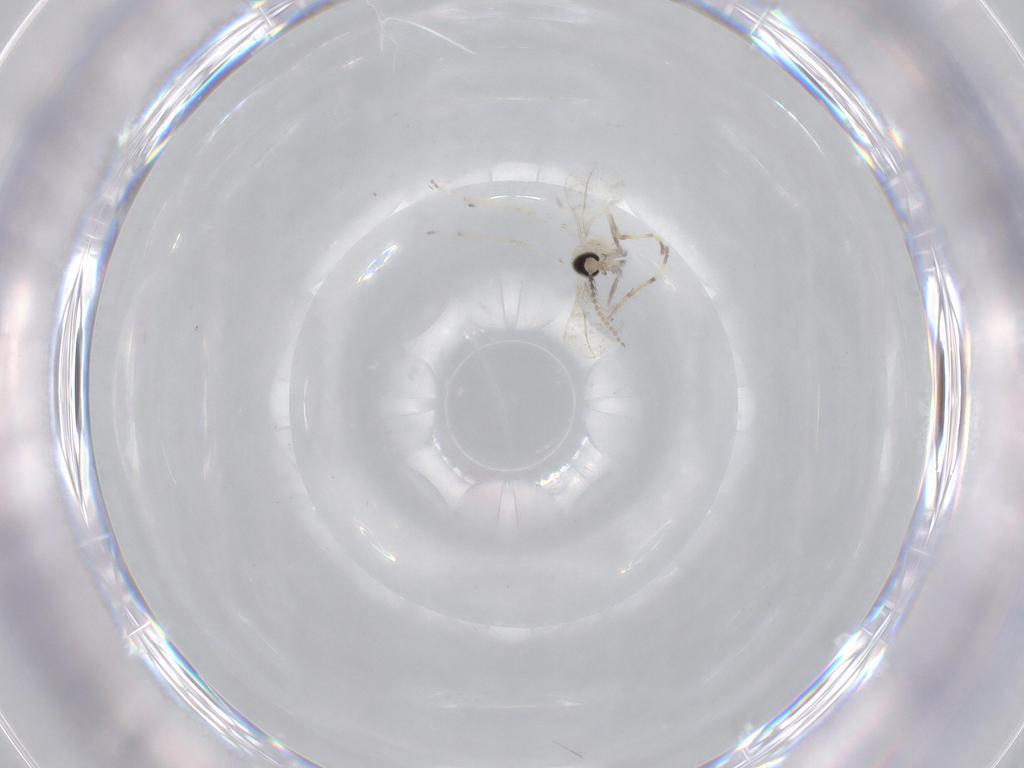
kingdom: Animalia
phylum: Arthropoda
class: Insecta
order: Diptera
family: Cecidomyiidae
